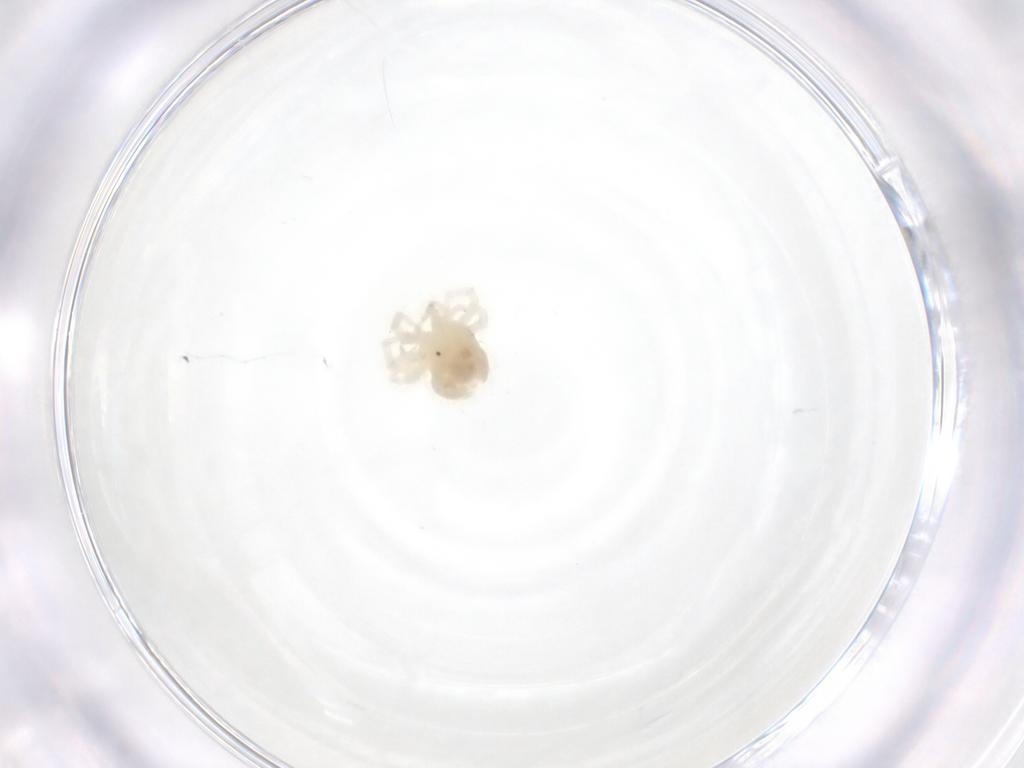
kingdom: Animalia
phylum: Arthropoda
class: Arachnida
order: Trombidiformes
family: Anystidae
